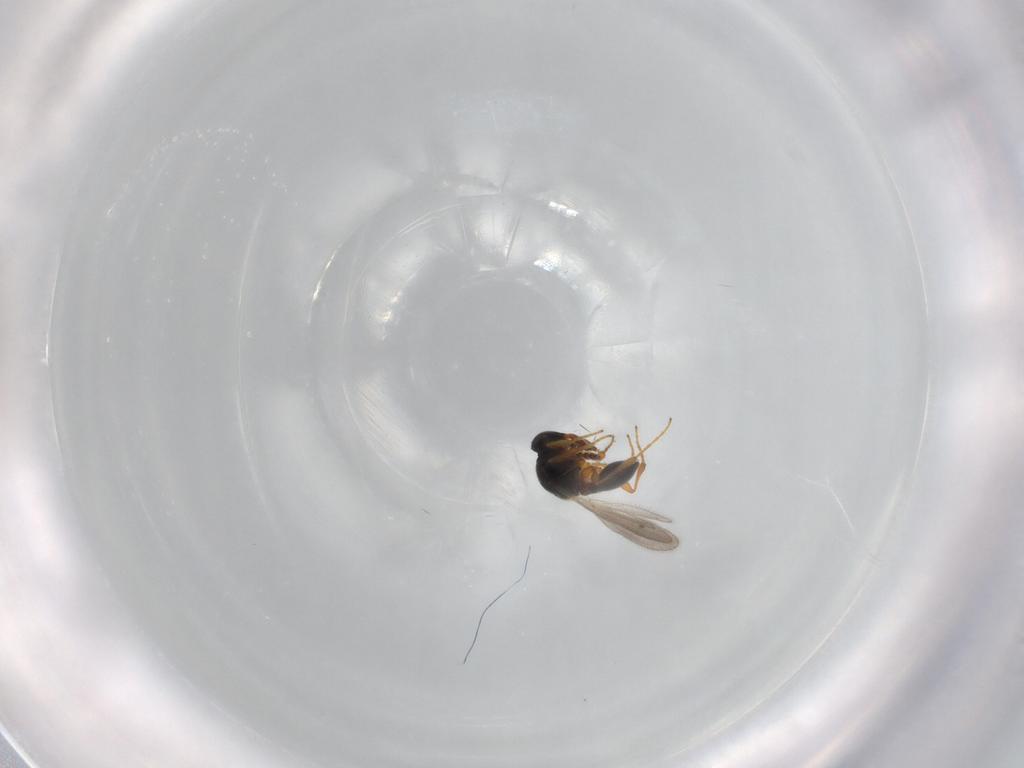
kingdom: Animalia
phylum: Arthropoda
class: Insecta
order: Hymenoptera
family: Platygastridae
